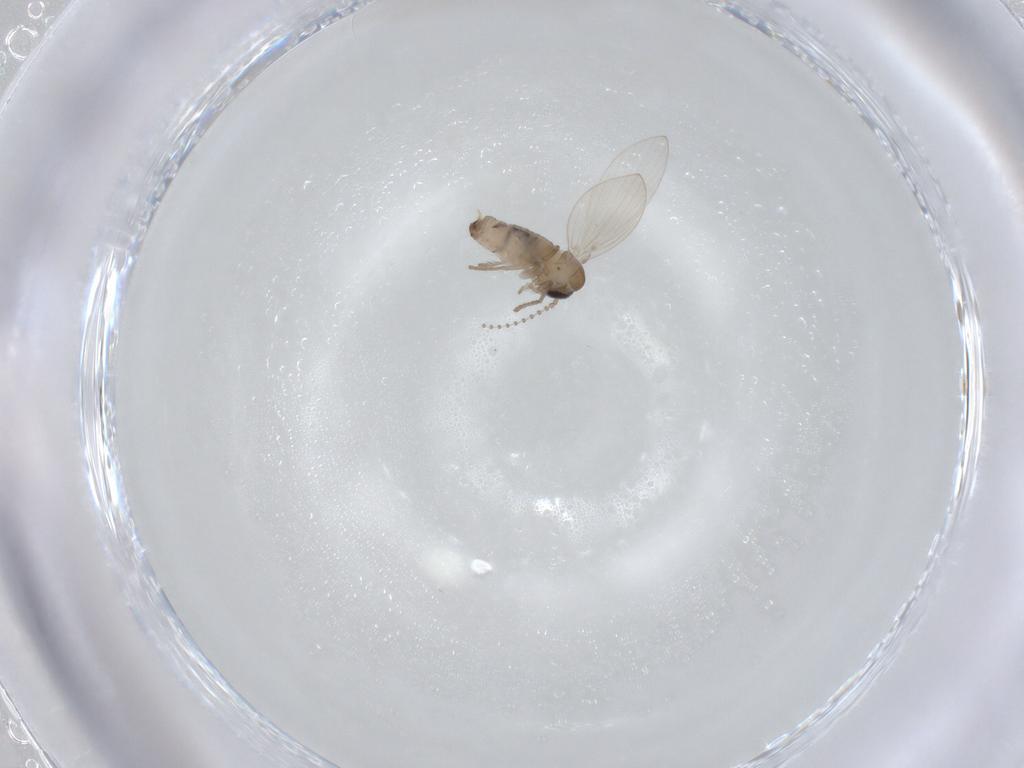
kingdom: Animalia
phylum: Arthropoda
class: Insecta
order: Diptera
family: Psychodidae
